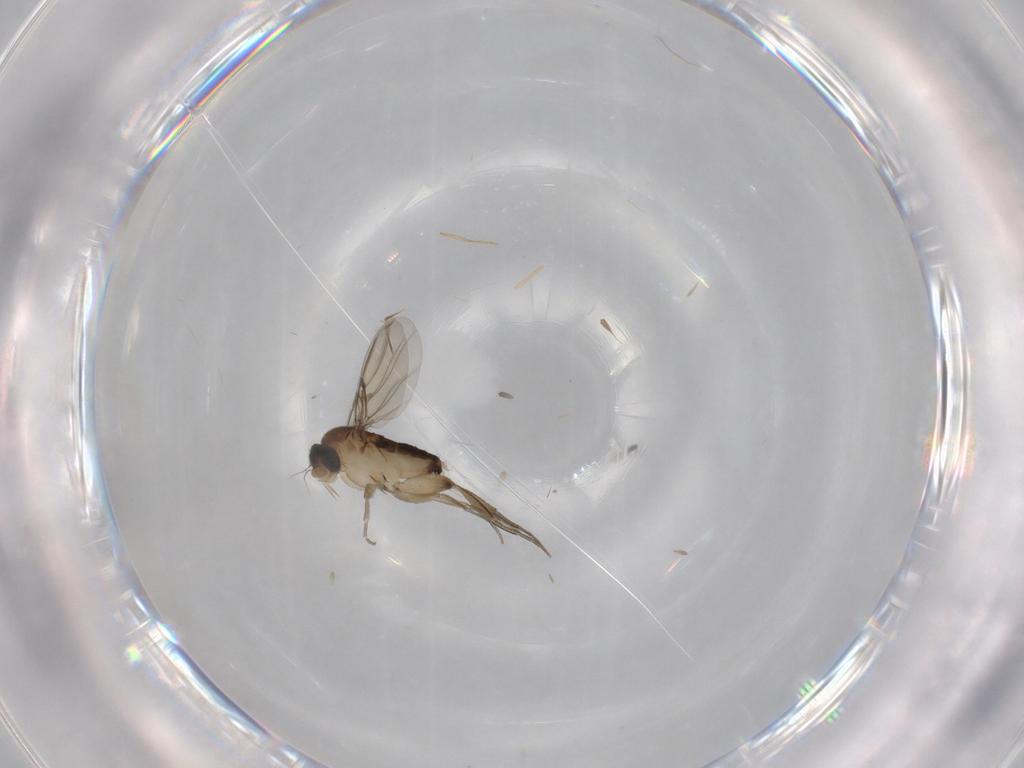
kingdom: Animalia
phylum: Arthropoda
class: Insecta
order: Diptera
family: Phoridae
